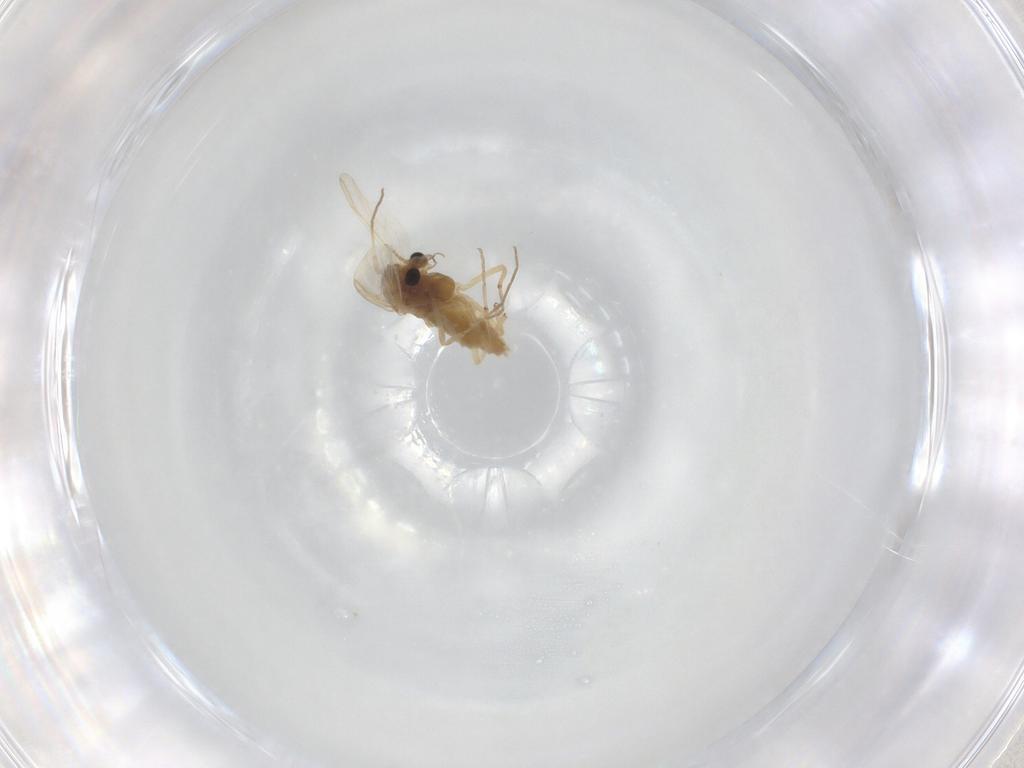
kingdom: Animalia
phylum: Arthropoda
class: Insecta
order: Diptera
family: Chironomidae
